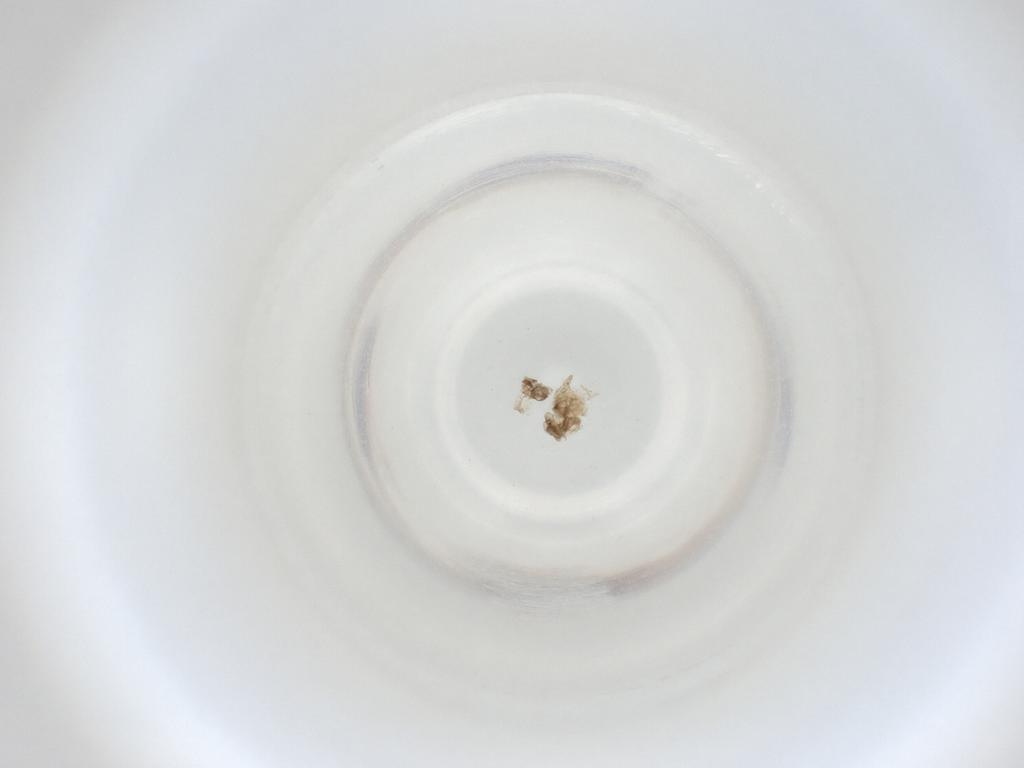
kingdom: Animalia
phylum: Arthropoda
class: Insecta
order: Diptera
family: Cecidomyiidae
